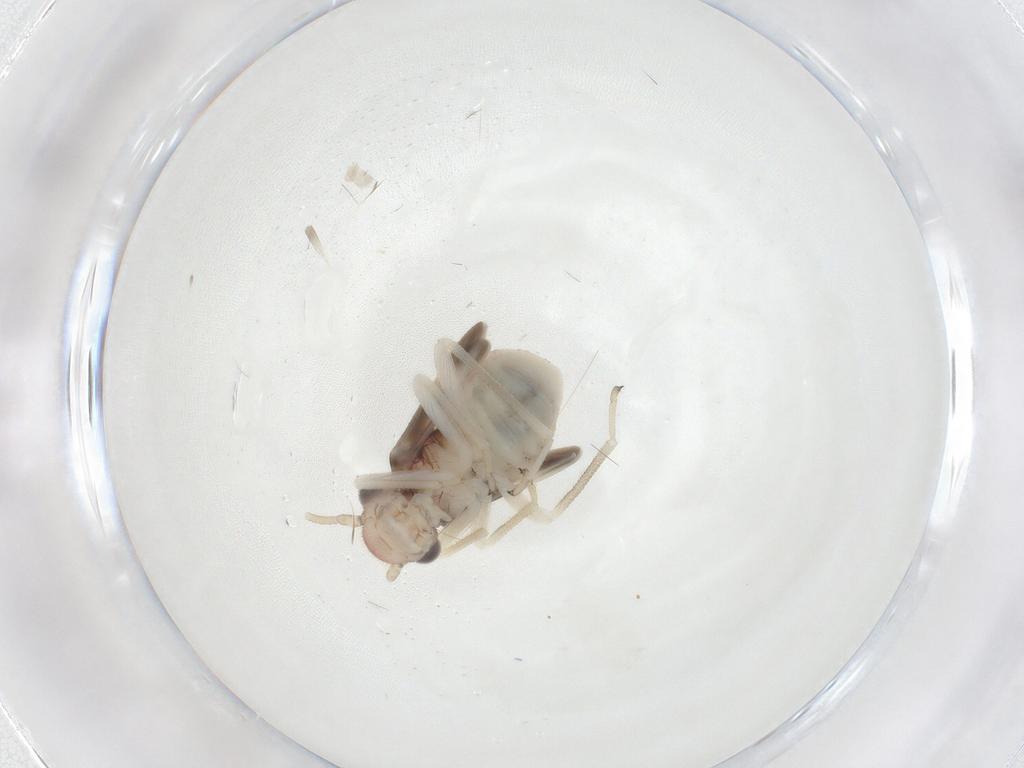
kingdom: Animalia
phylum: Arthropoda
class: Insecta
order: Psocodea
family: Amphipsocidae
